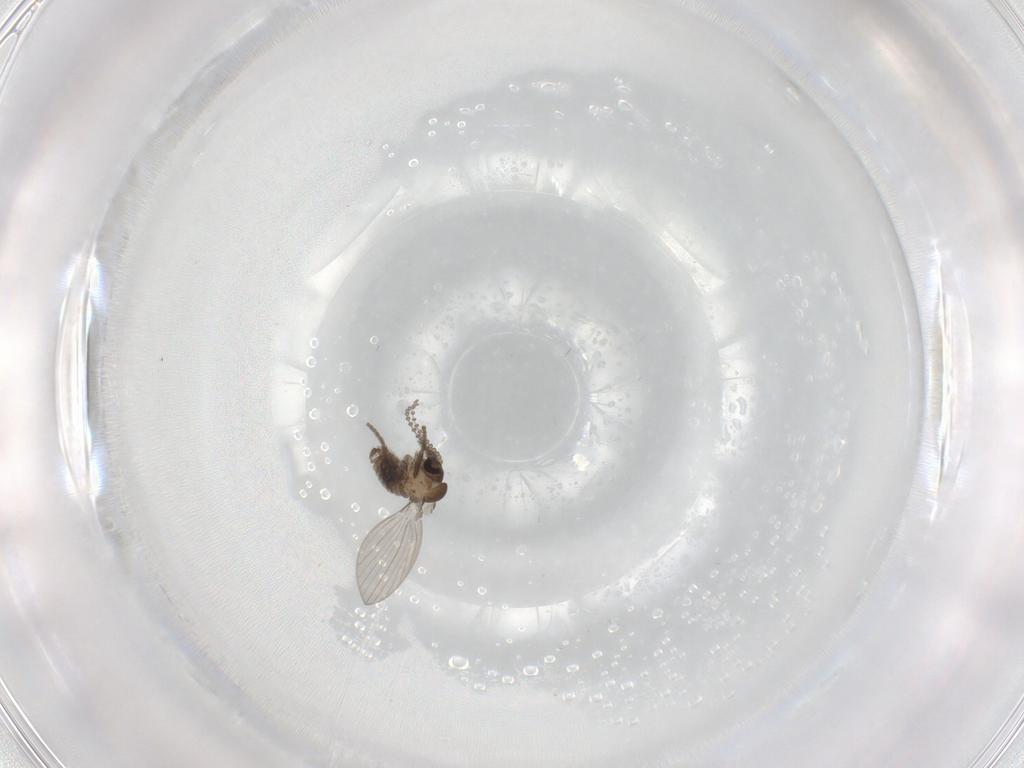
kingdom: Animalia
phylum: Arthropoda
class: Insecta
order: Diptera
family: Psychodidae
